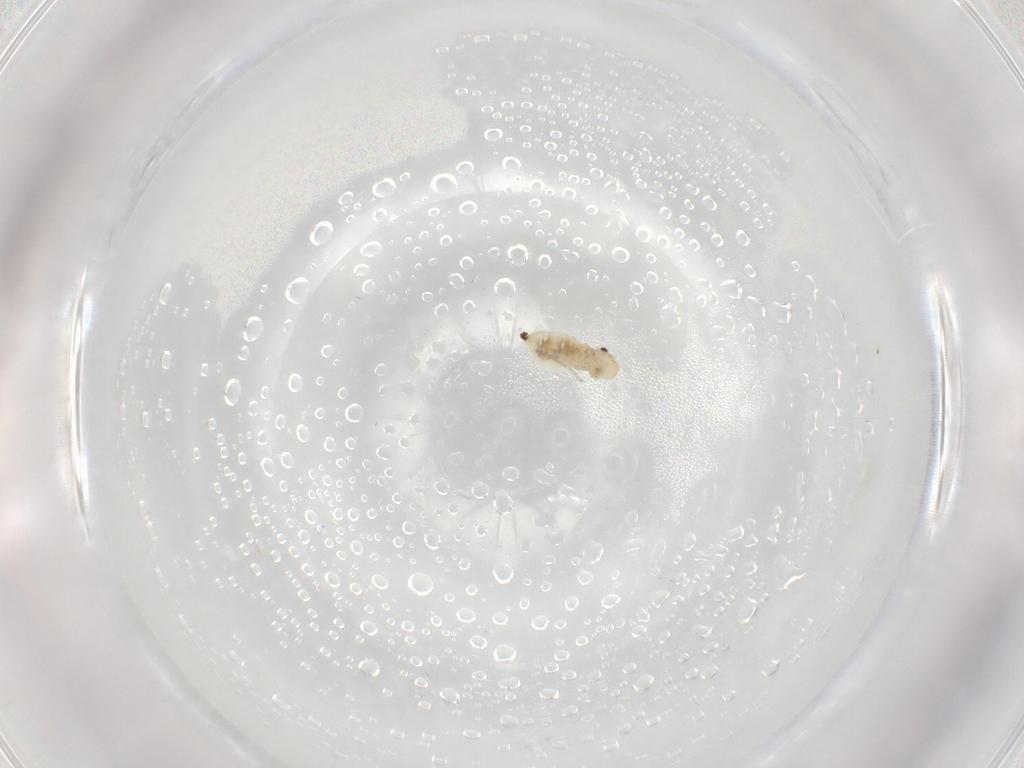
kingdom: Animalia
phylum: Arthropoda
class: Insecta
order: Psocodea
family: Caeciliusidae
